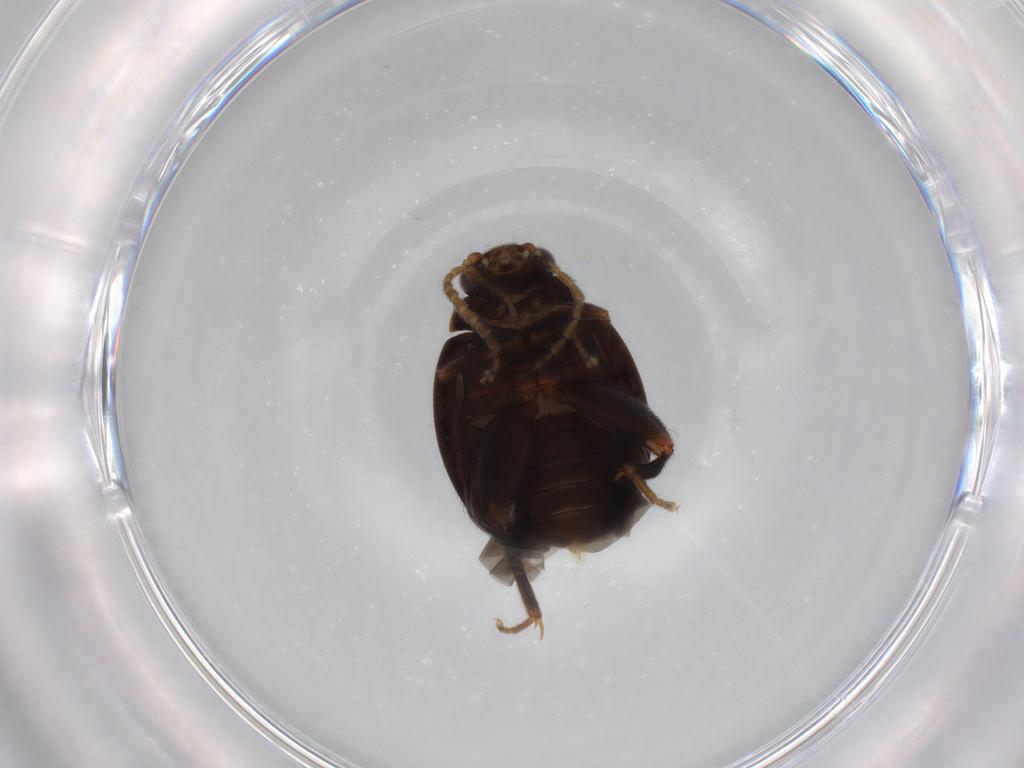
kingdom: Animalia
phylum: Arthropoda
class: Insecta
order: Coleoptera
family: Scirtidae
